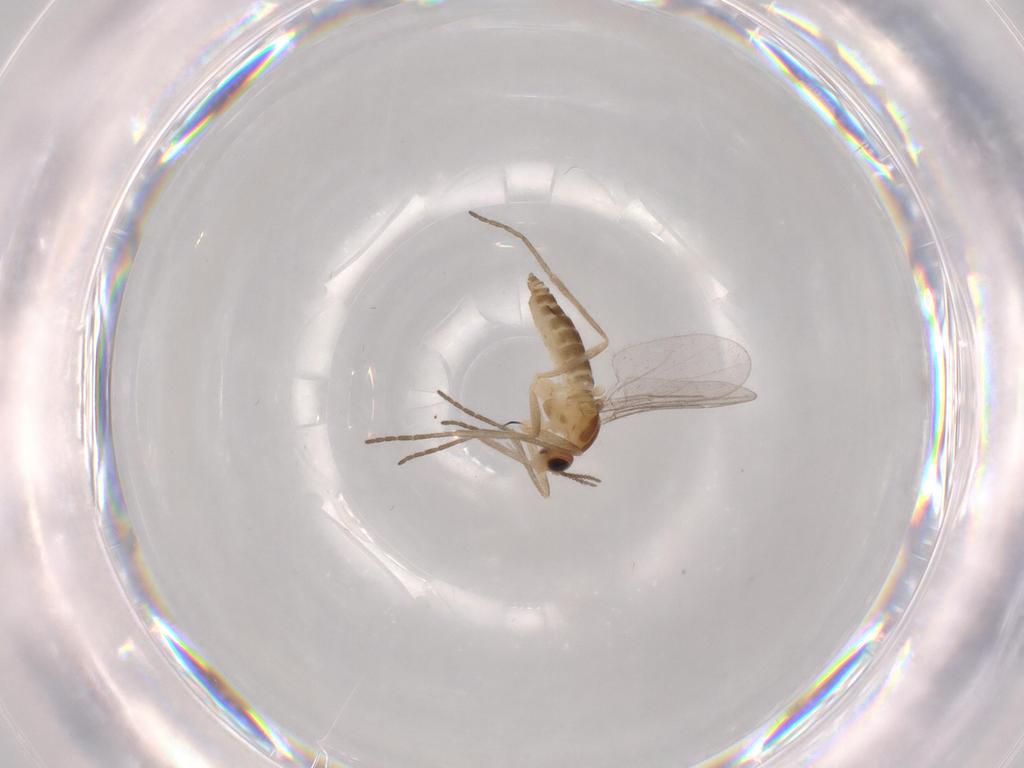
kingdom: Animalia
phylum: Arthropoda
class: Insecta
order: Diptera
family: Cecidomyiidae
